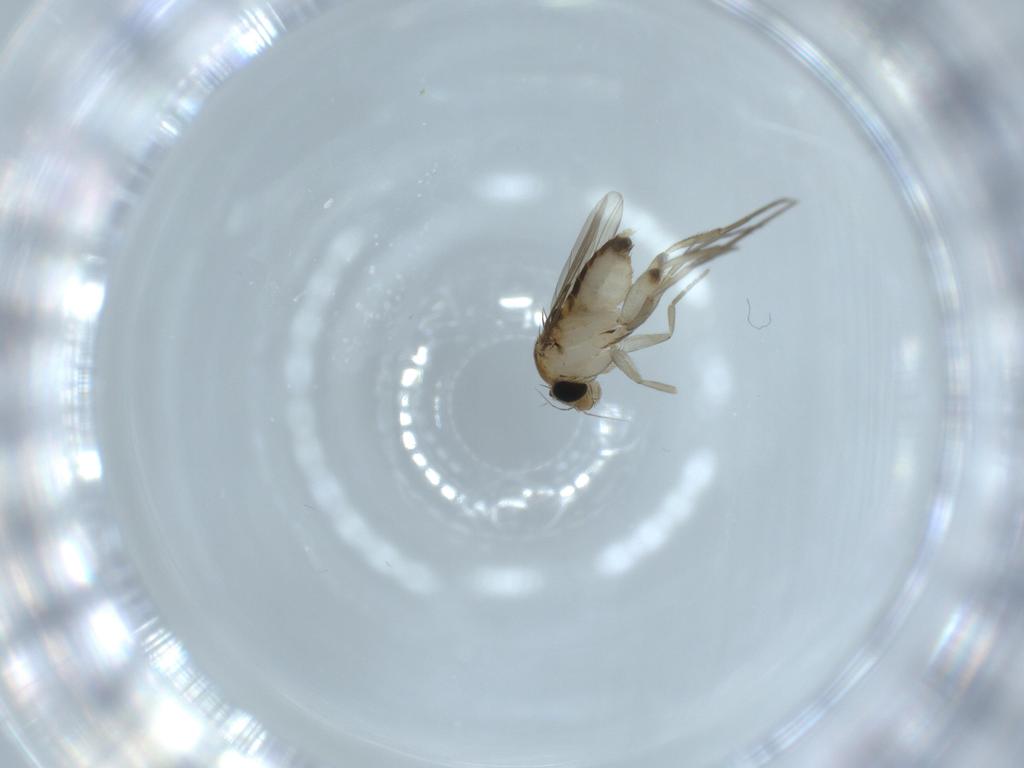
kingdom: Animalia
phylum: Arthropoda
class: Insecta
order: Diptera
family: Phoridae
